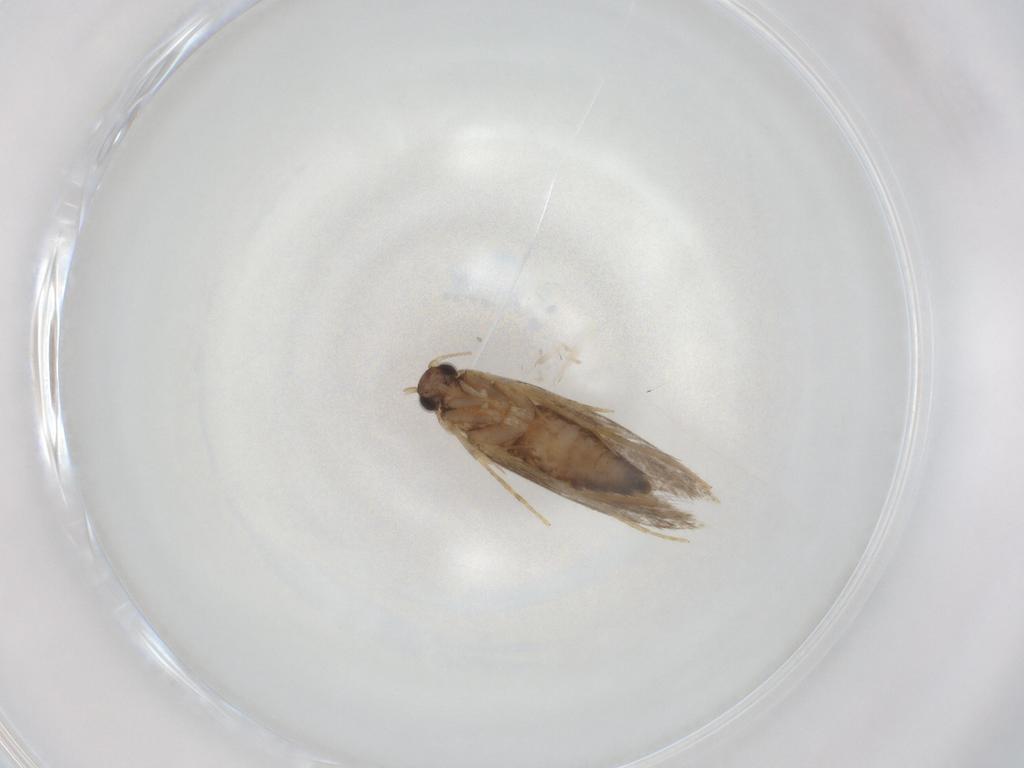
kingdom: Animalia
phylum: Arthropoda
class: Insecta
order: Lepidoptera
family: Tineidae
